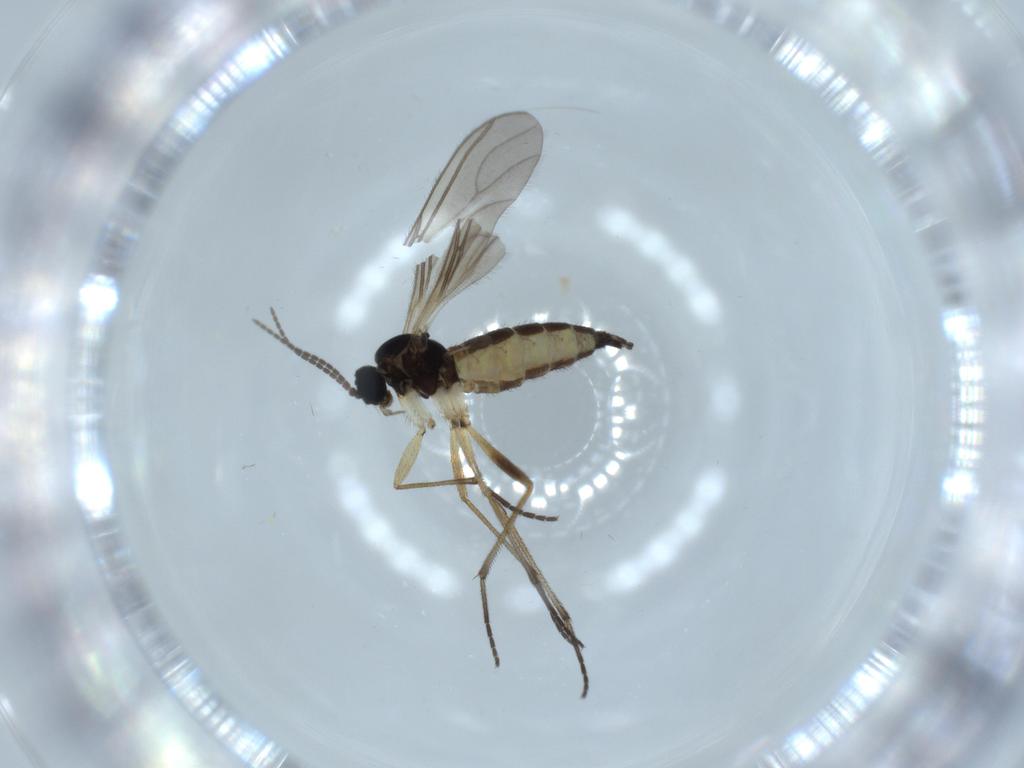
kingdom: Animalia
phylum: Arthropoda
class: Insecta
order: Diptera
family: Sciaridae
